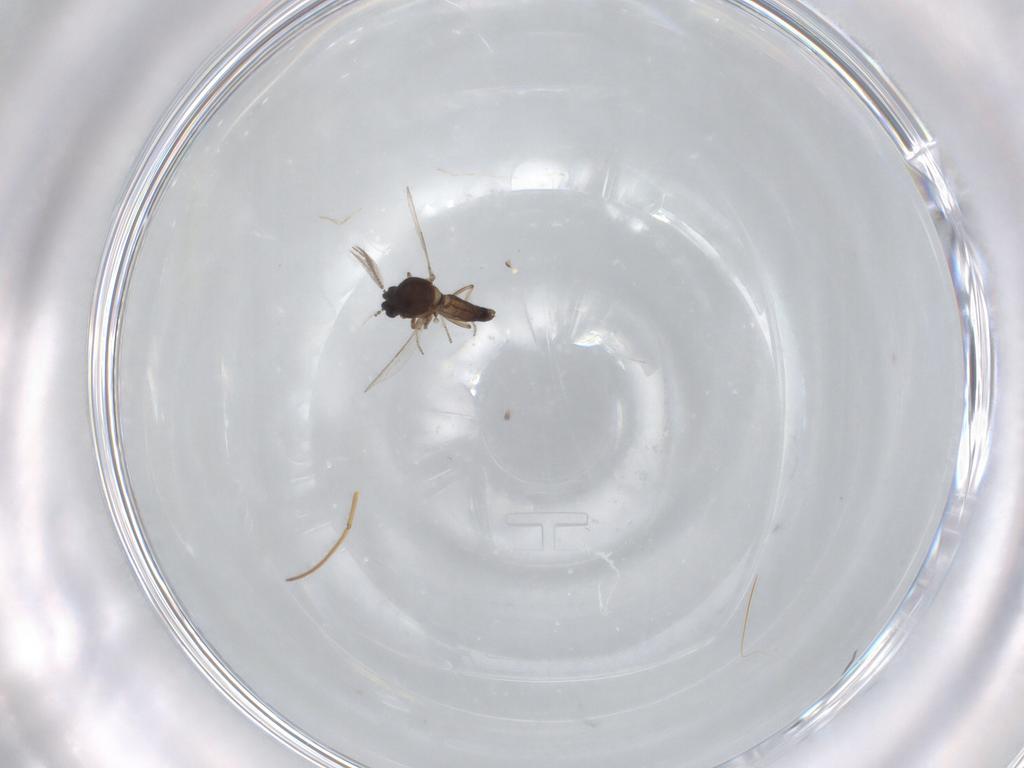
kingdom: Animalia
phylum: Arthropoda
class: Insecta
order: Diptera
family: Ceratopogonidae
